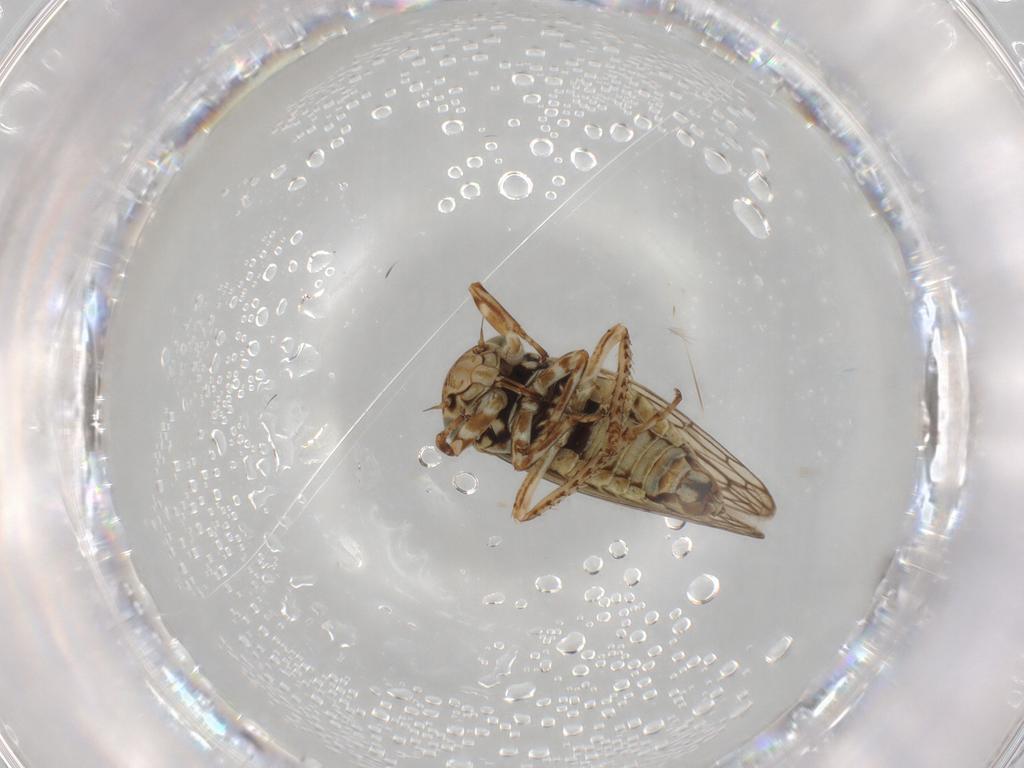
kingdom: Animalia
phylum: Arthropoda
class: Insecta
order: Hemiptera
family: Cicadellidae
